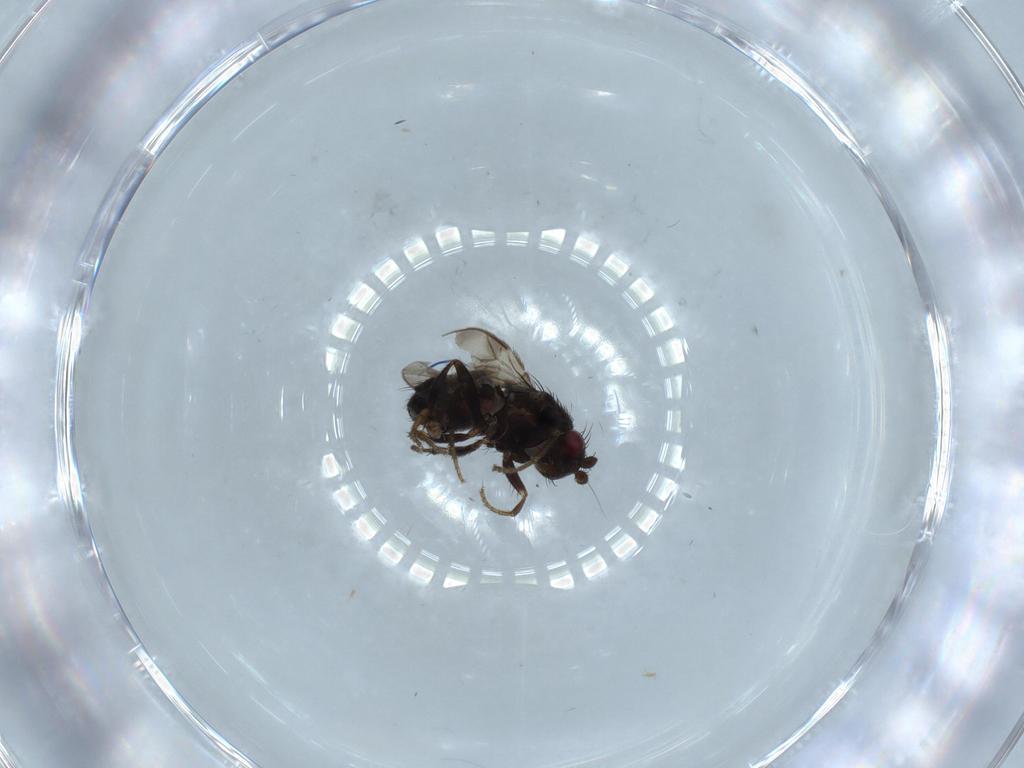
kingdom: Animalia
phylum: Arthropoda
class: Insecta
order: Diptera
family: Sphaeroceridae
